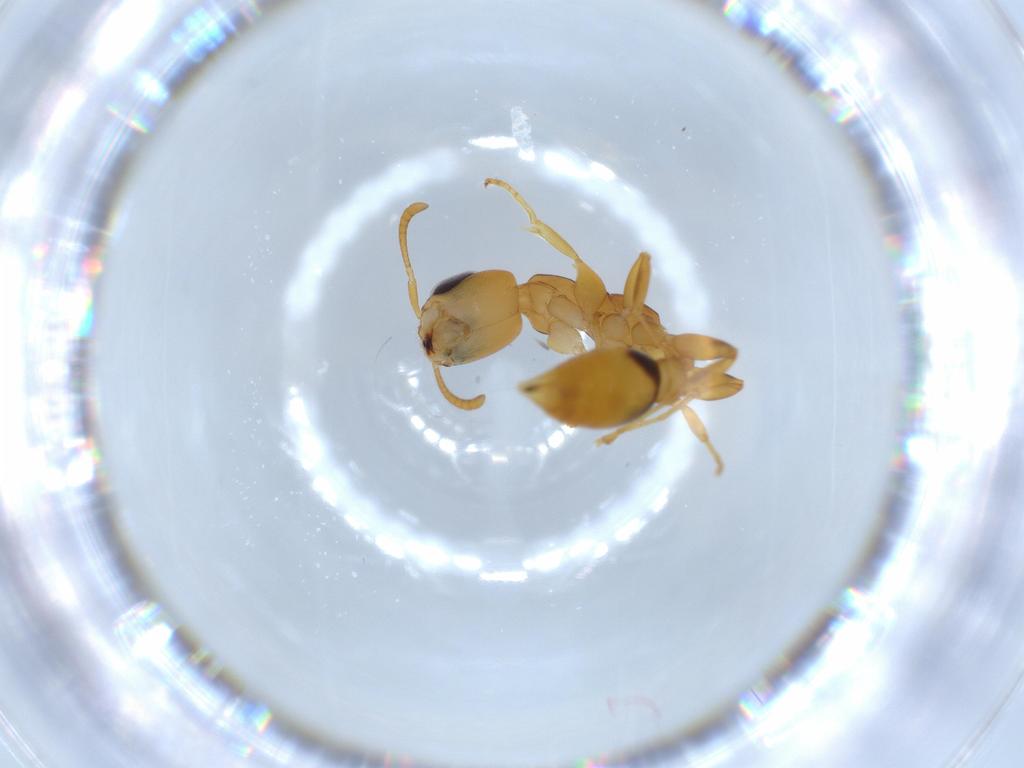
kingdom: Animalia
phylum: Arthropoda
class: Insecta
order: Hymenoptera
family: Formicidae
